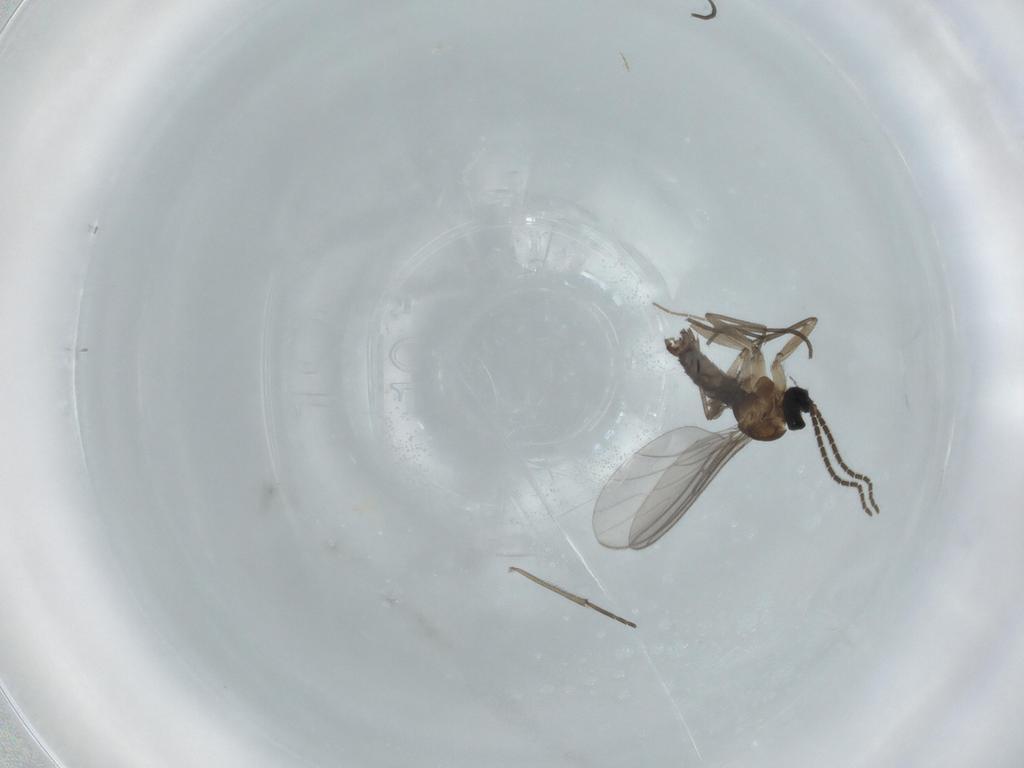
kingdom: Animalia
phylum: Arthropoda
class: Insecta
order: Diptera
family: Sciaridae
